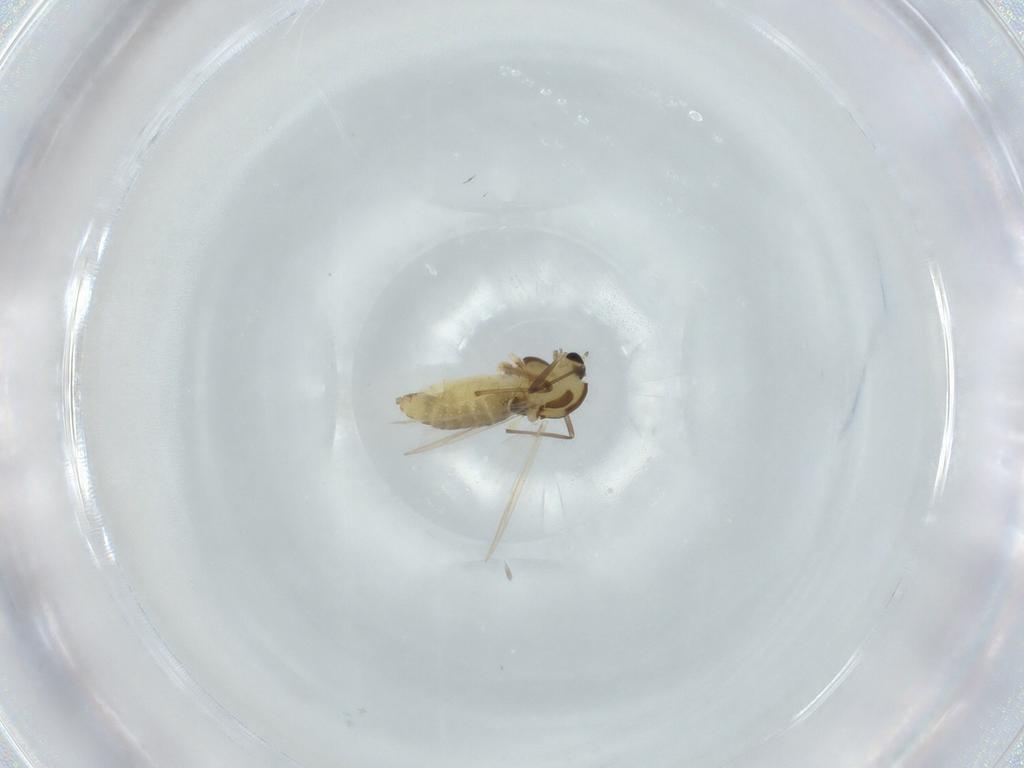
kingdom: Animalia
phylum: Arthropoda
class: Insecta
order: Diptera
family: Chironomidae
